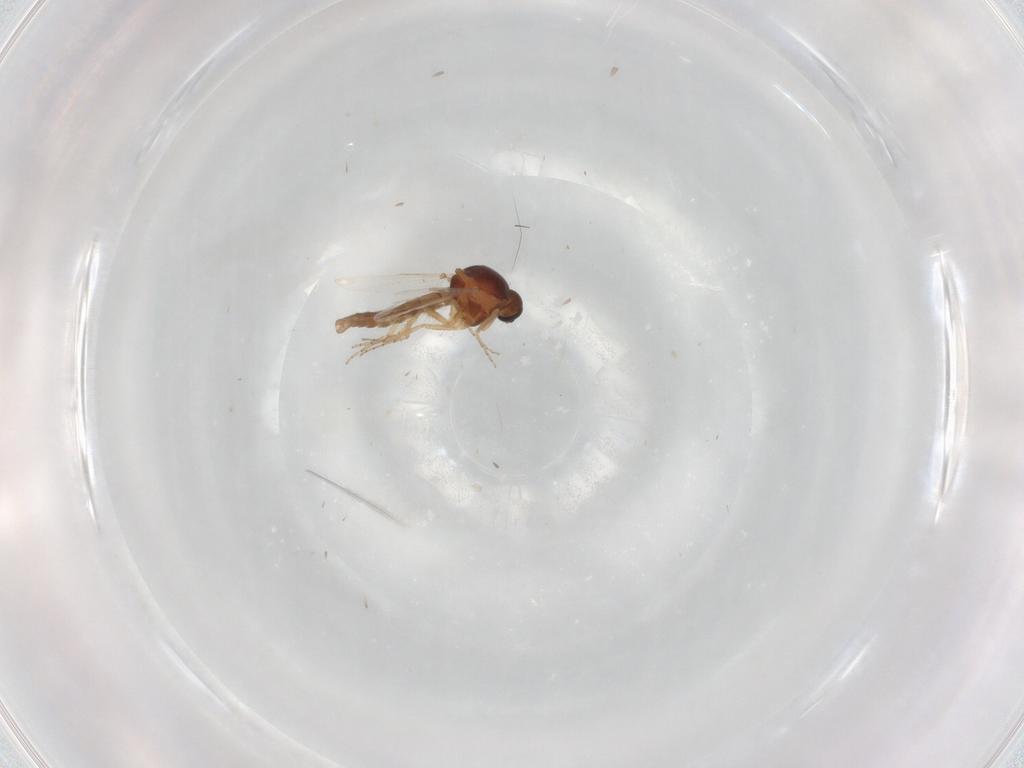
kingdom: Animalia
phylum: Arthropoda
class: Insecta
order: Diptera
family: Ceratopogonidae
